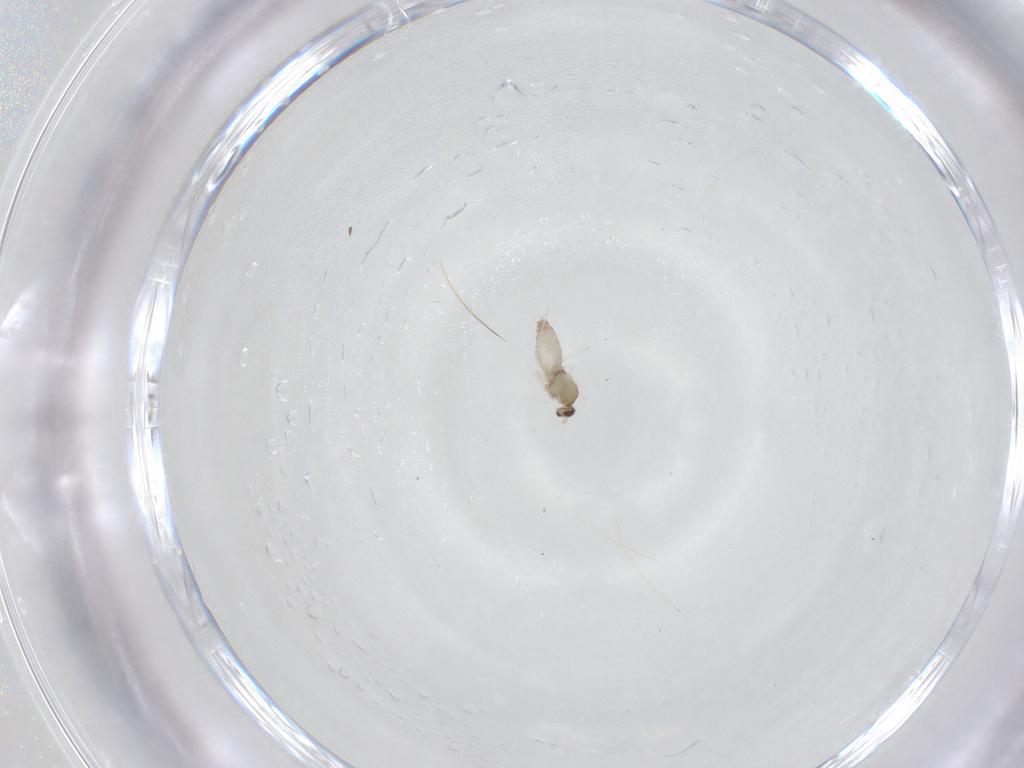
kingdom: Animalia
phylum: Arthropoda
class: Insecta
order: Diptera
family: Cecidomyiidae
